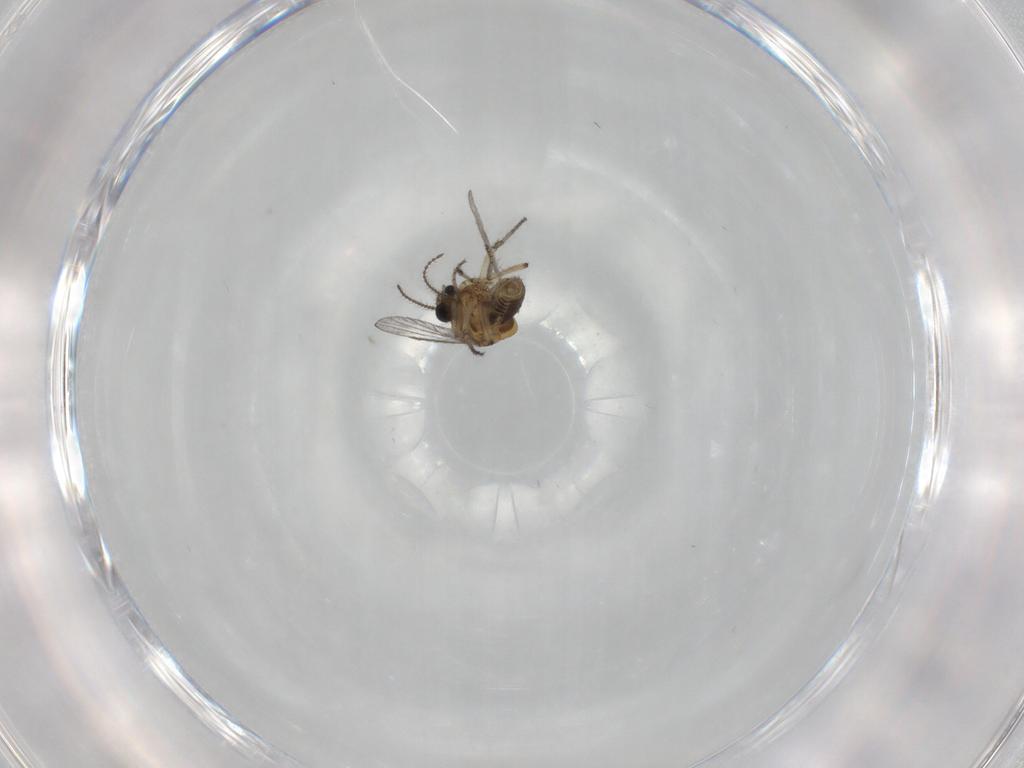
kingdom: Animalia
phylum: Arthropoda
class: Insecta
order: Diptera
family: Ceratopogonidae
